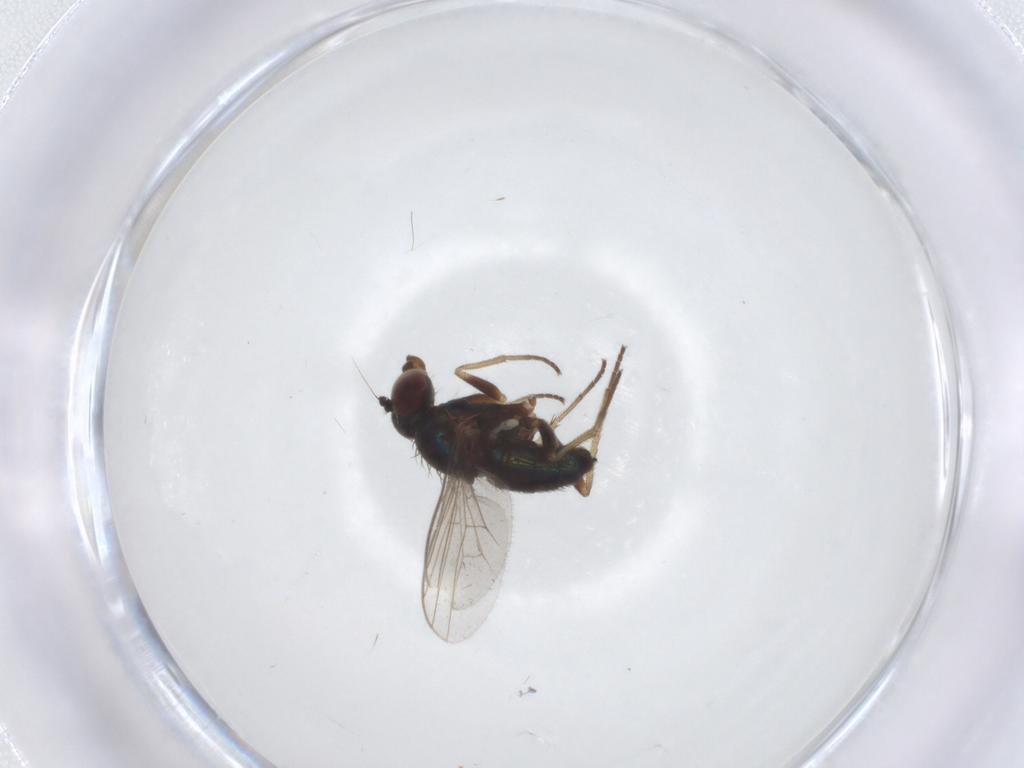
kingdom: Animalia
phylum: Arthropoda
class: Insecta
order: Diptera
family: Dolichopodidae
